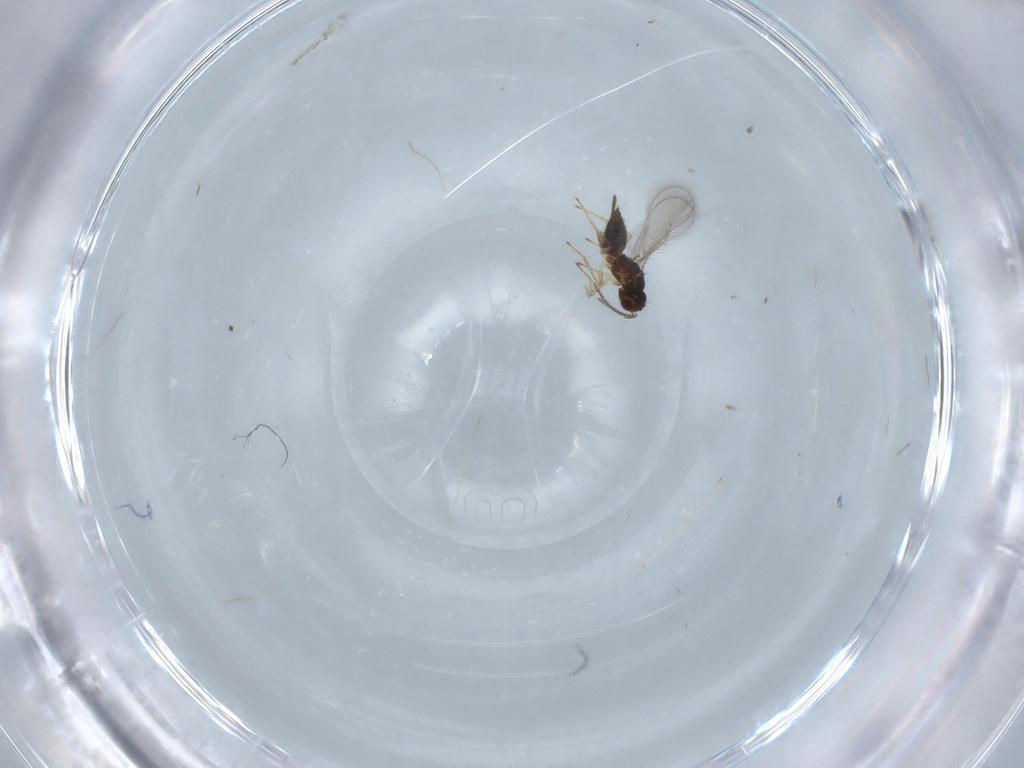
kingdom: Animalia
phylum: Arthropoda
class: Insecta
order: Hymenoptera
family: Eulophidae
